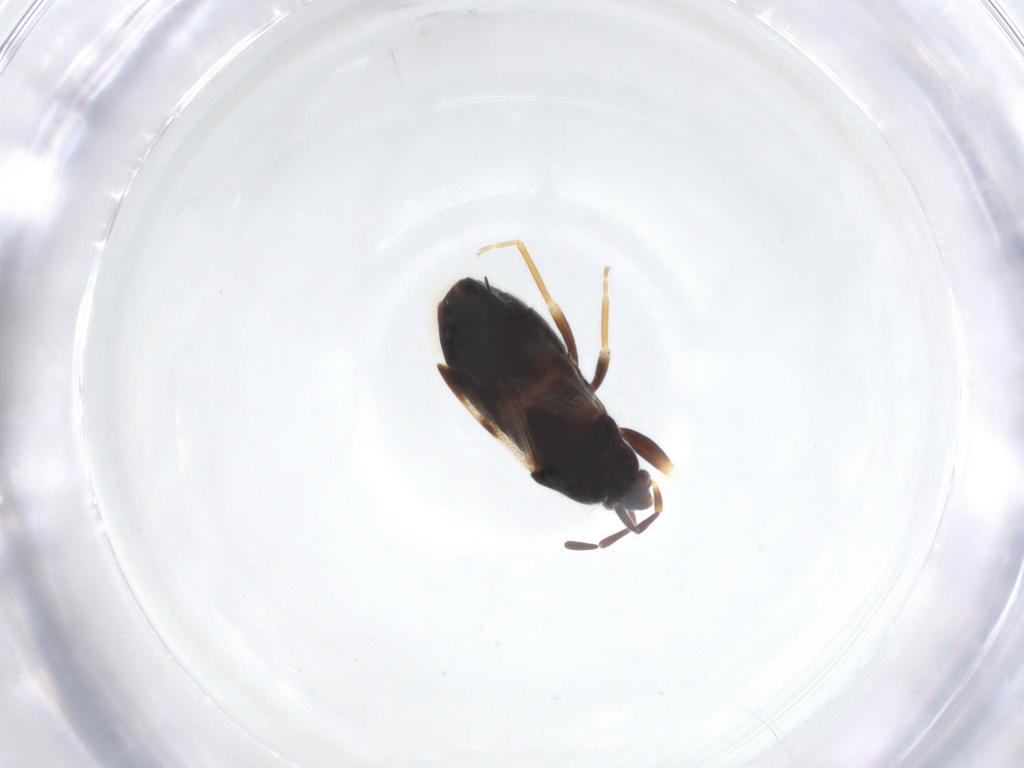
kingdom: Animalia
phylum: Arthropoda
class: Insecta
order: Hemiptera
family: Rhyparochromidae
